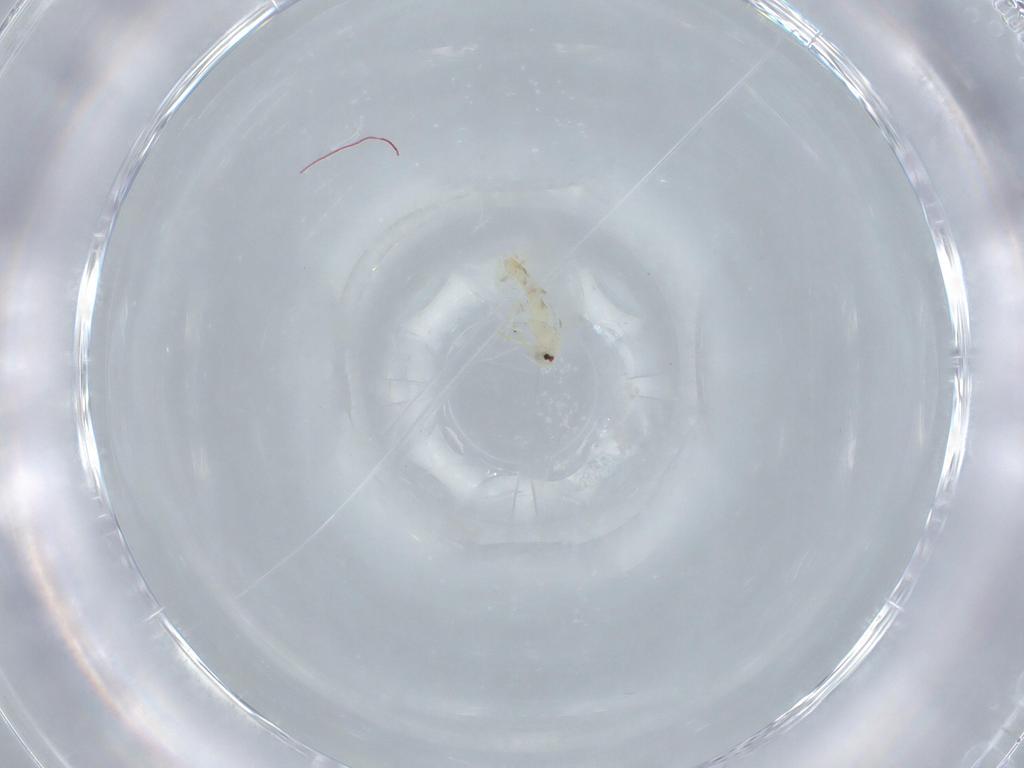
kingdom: Animalia
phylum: Arthropoda
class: Insecta
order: Hemiptera
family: Aleyrodidae
